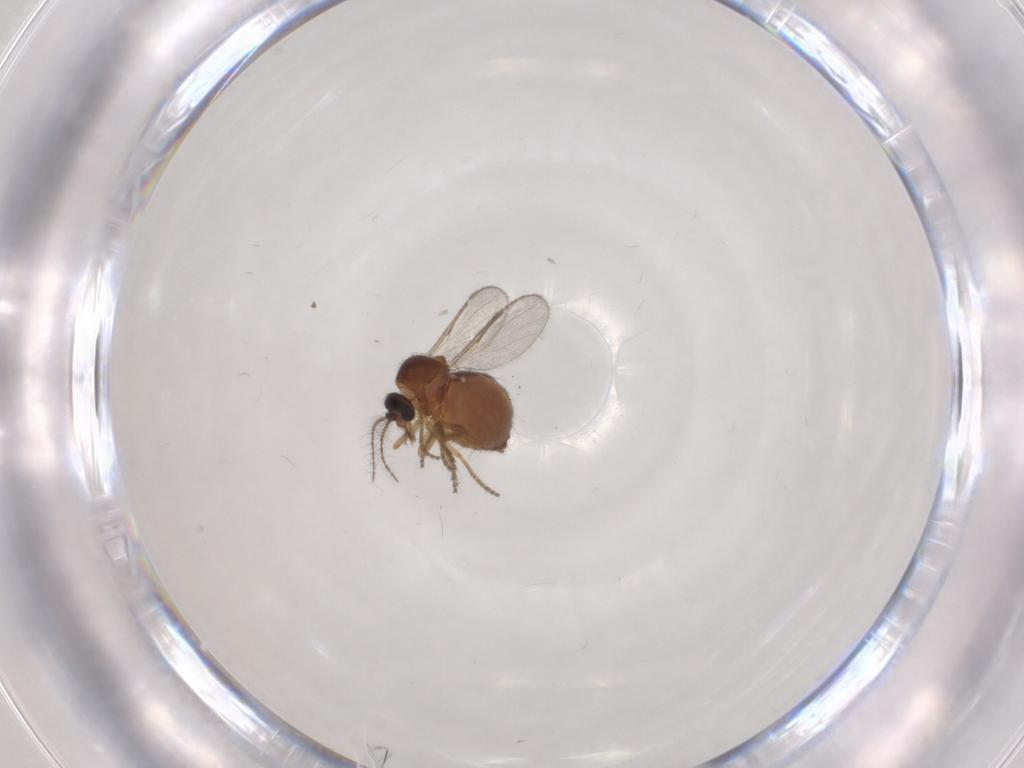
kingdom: Animalia
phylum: Arthropoda
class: Insecta
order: Diptera
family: Ceratopogonidae
